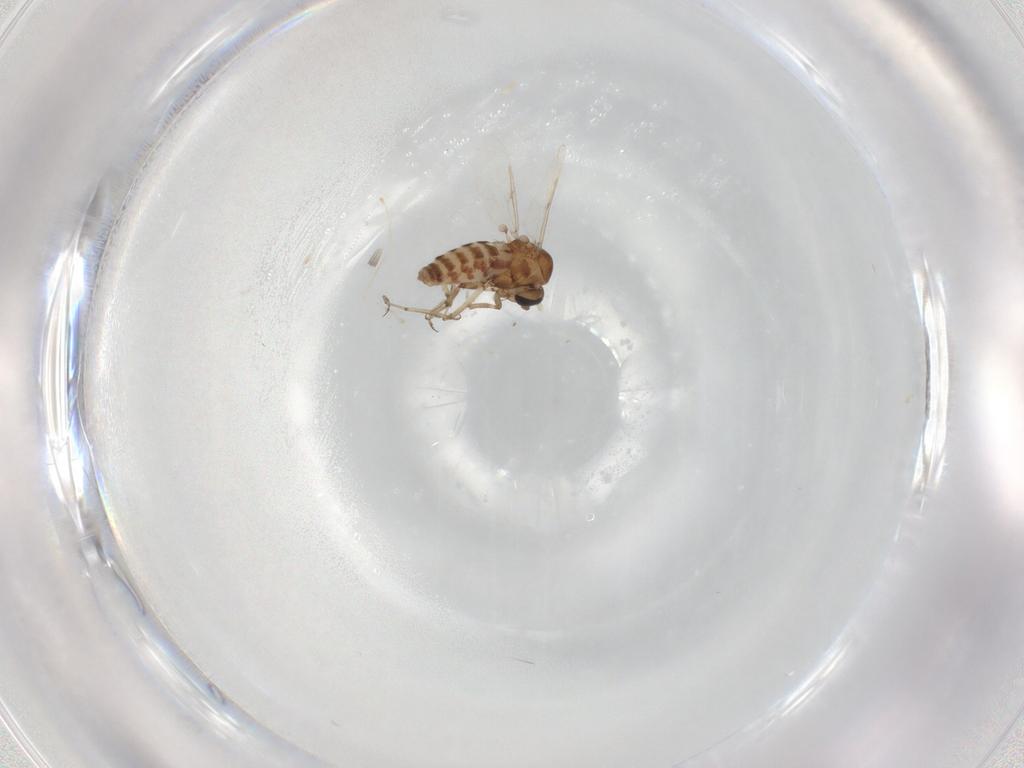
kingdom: Animalia
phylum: Arthropoda
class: Insecta
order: Diptera
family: Ceratopogonidae
